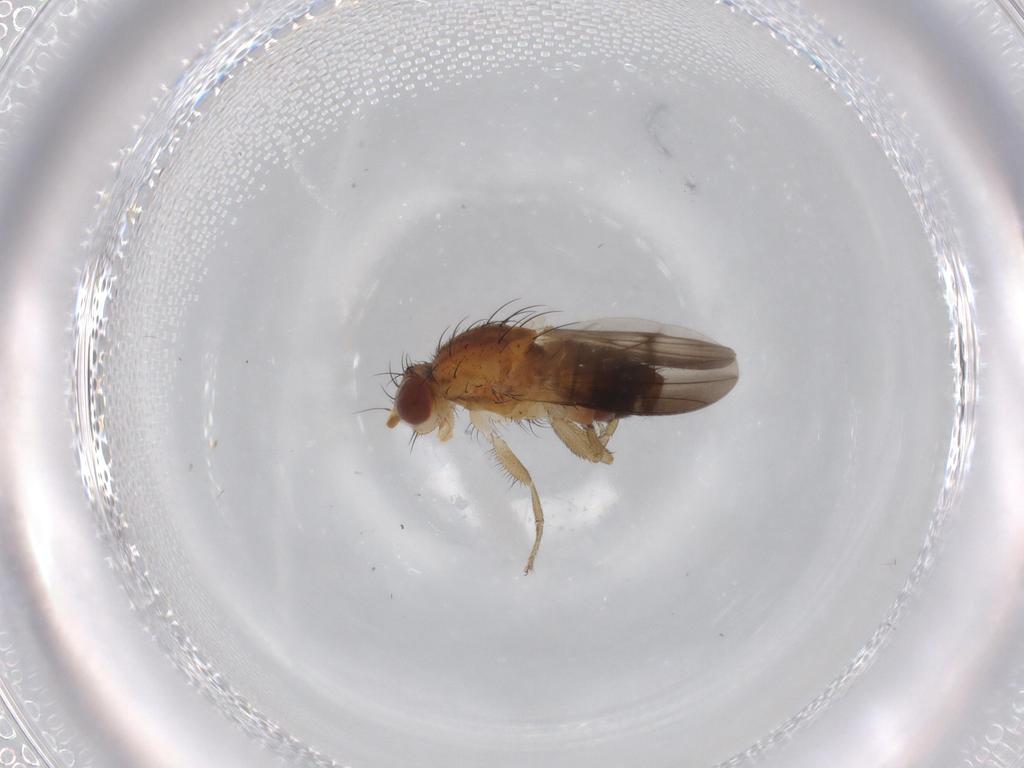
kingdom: Animalia
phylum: Arthropoda
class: Insecta
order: Diptera
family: Heleomyzidae
